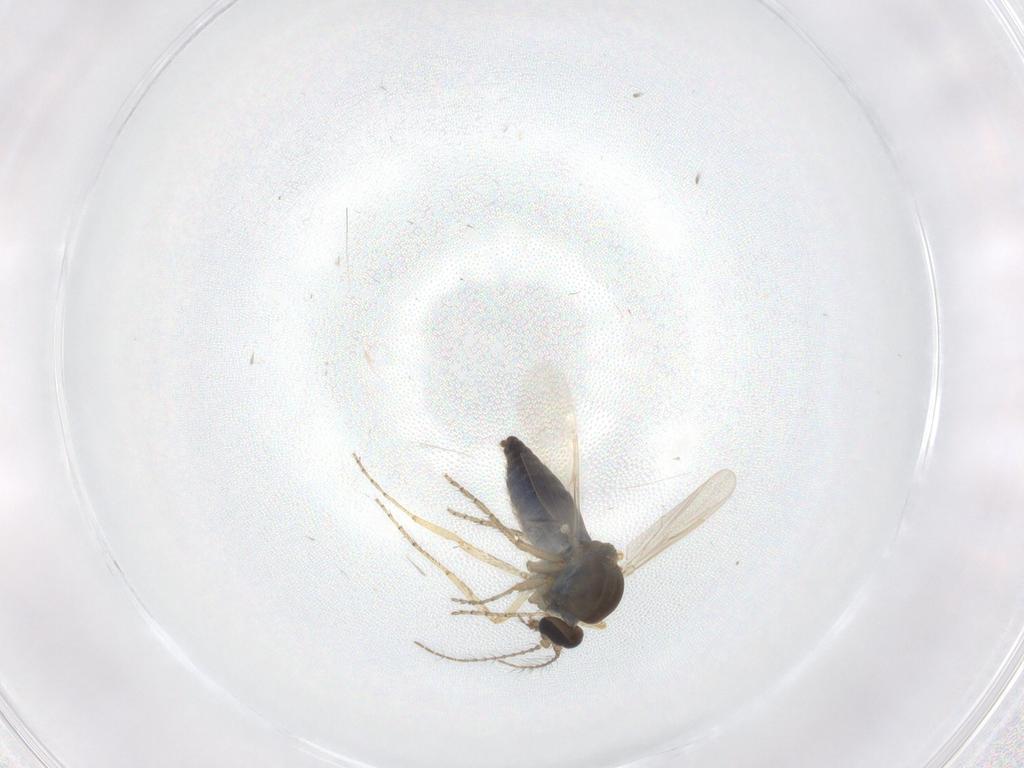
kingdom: Animalia
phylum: Arthropoda
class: Insecta
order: Diptera
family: Ceratopogonidae
